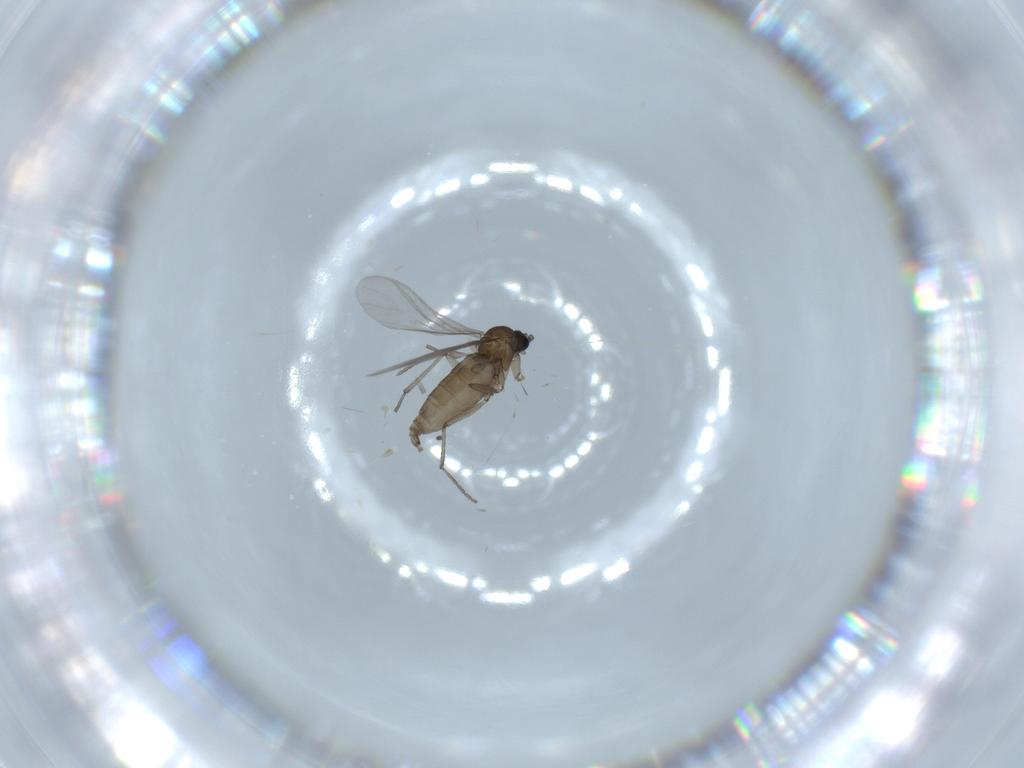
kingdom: Animalia
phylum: Arthropoda
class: Insecta
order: Diptera
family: Sciaridae
